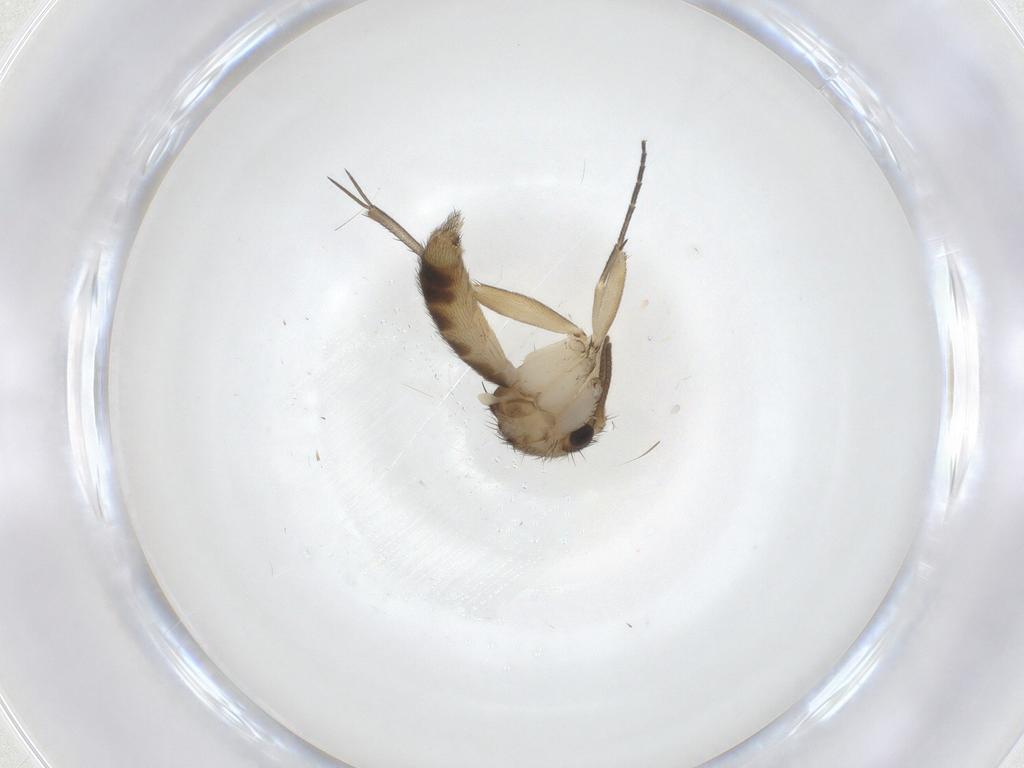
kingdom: Animalia
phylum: Arthropoda
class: Insecta
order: Diptera
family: Mycetophilidae
